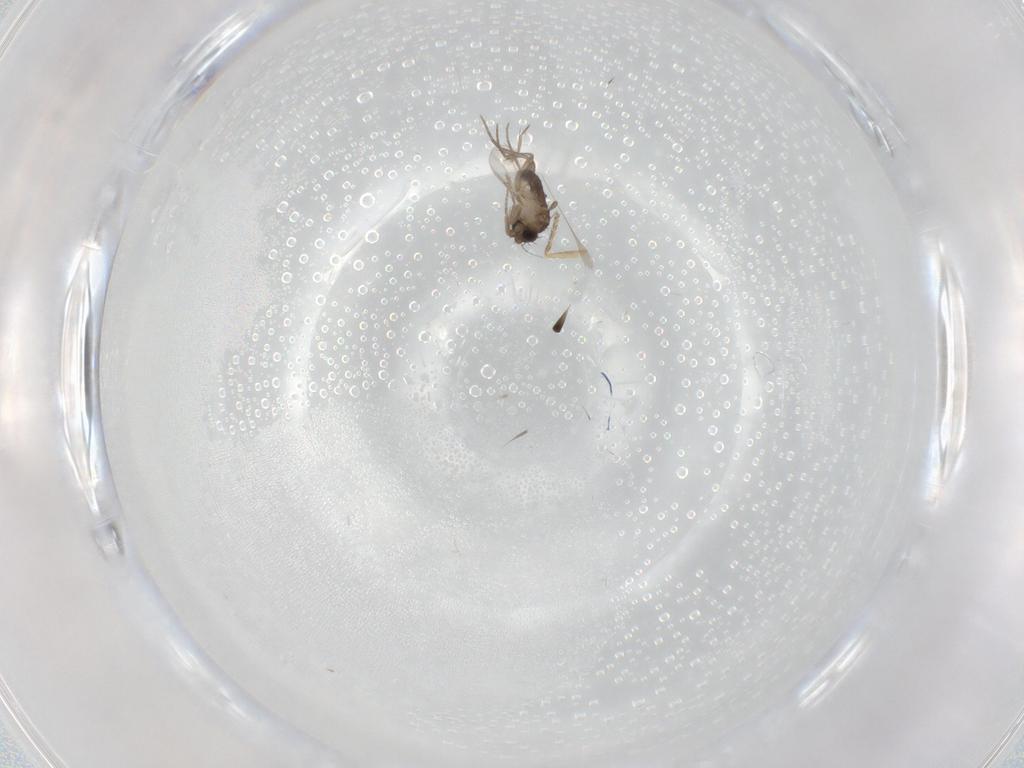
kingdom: Animalia
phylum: Arthropoda
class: Insecta
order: Diptera
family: Phoridae
